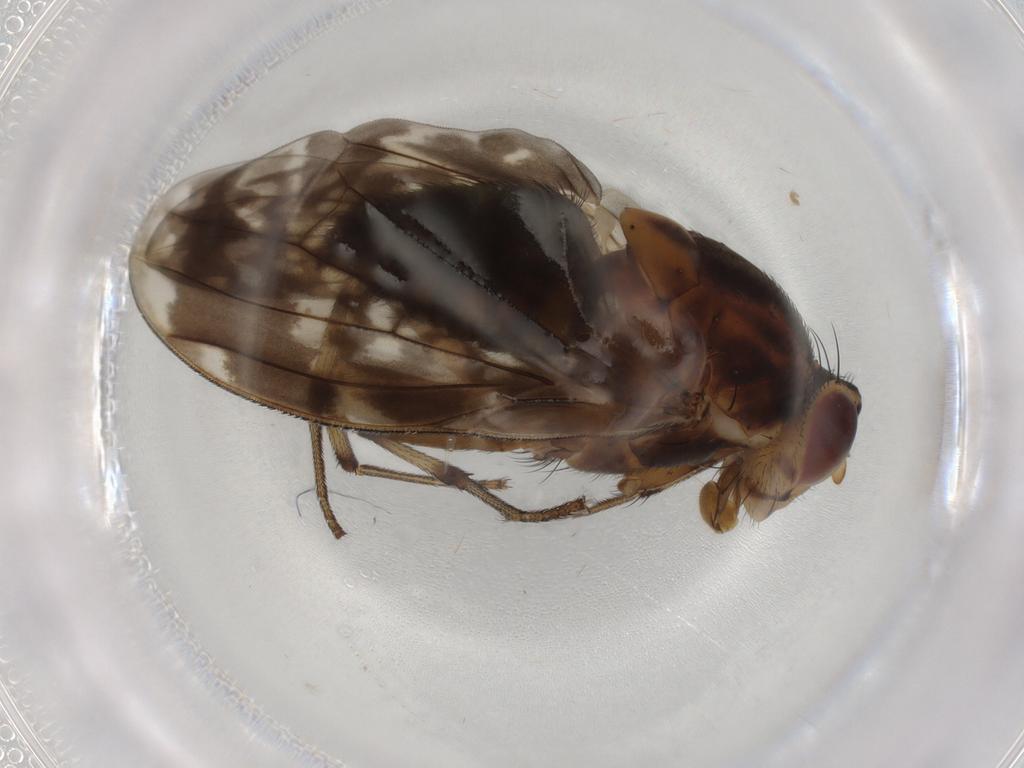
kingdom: Animalia
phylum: Arthropoda
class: Insecta
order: Diptera
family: Lauxaniidae
